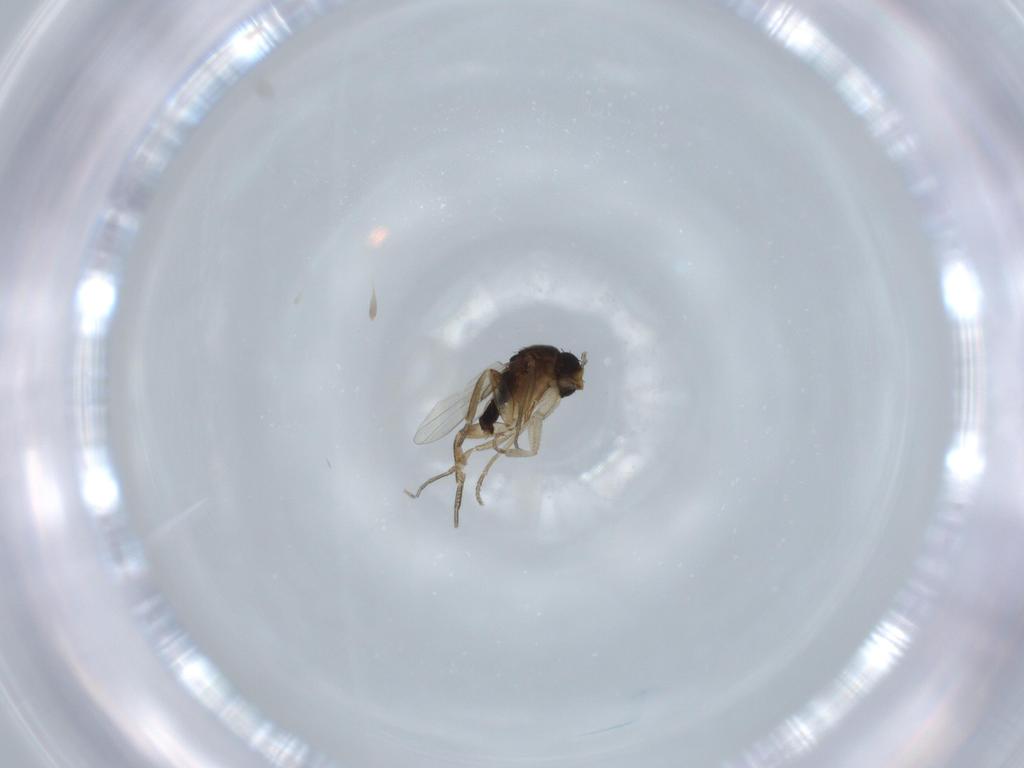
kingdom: Animalia
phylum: Arthropoda
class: Insecta
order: Diptera
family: Phoridae
